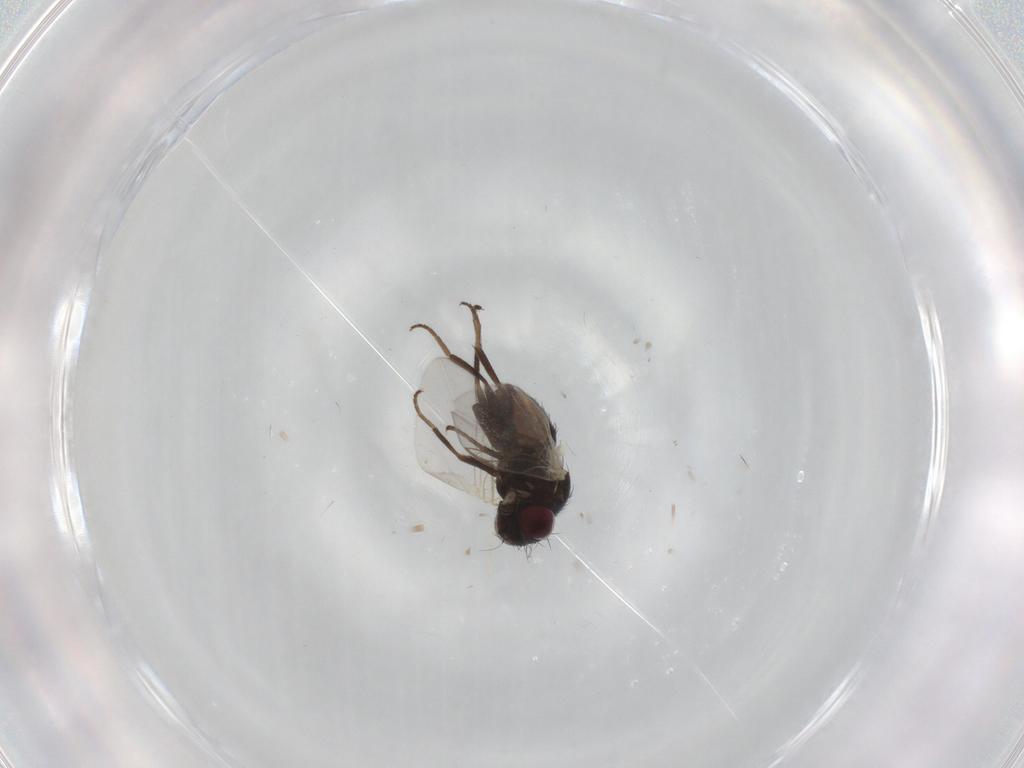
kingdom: Animalia
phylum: Arthropoda
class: Insecta
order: Diptera
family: Agromyzidae
